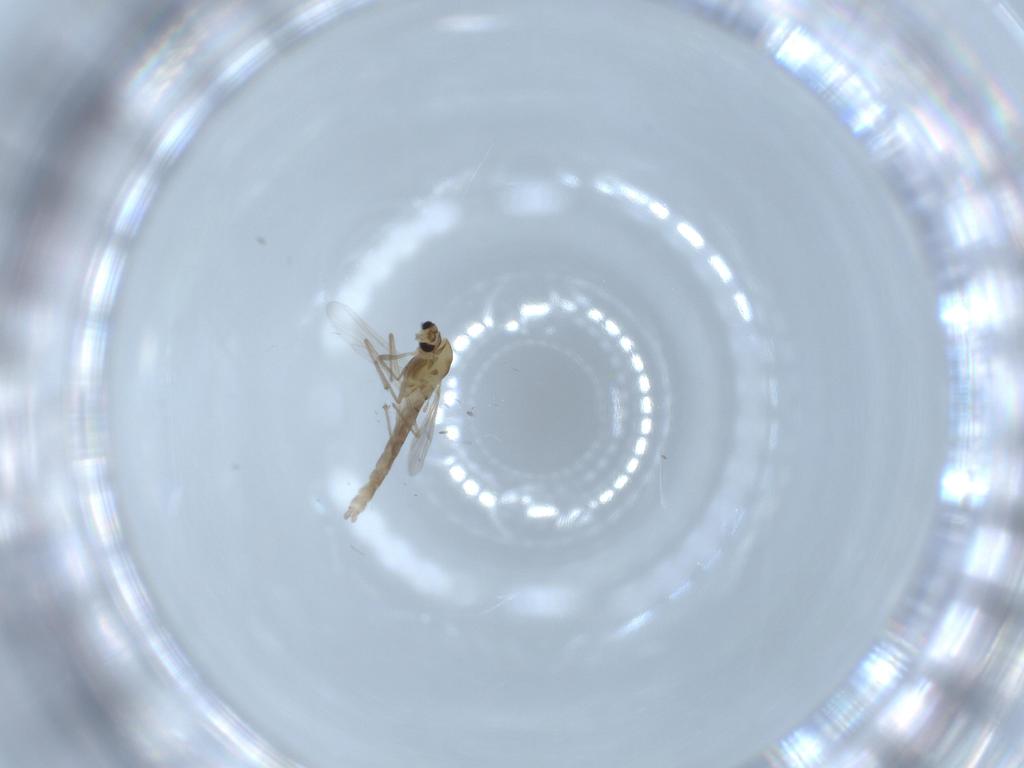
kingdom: Animalia
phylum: Arthropoda
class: Insecta
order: Diptera
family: Chironomidae
